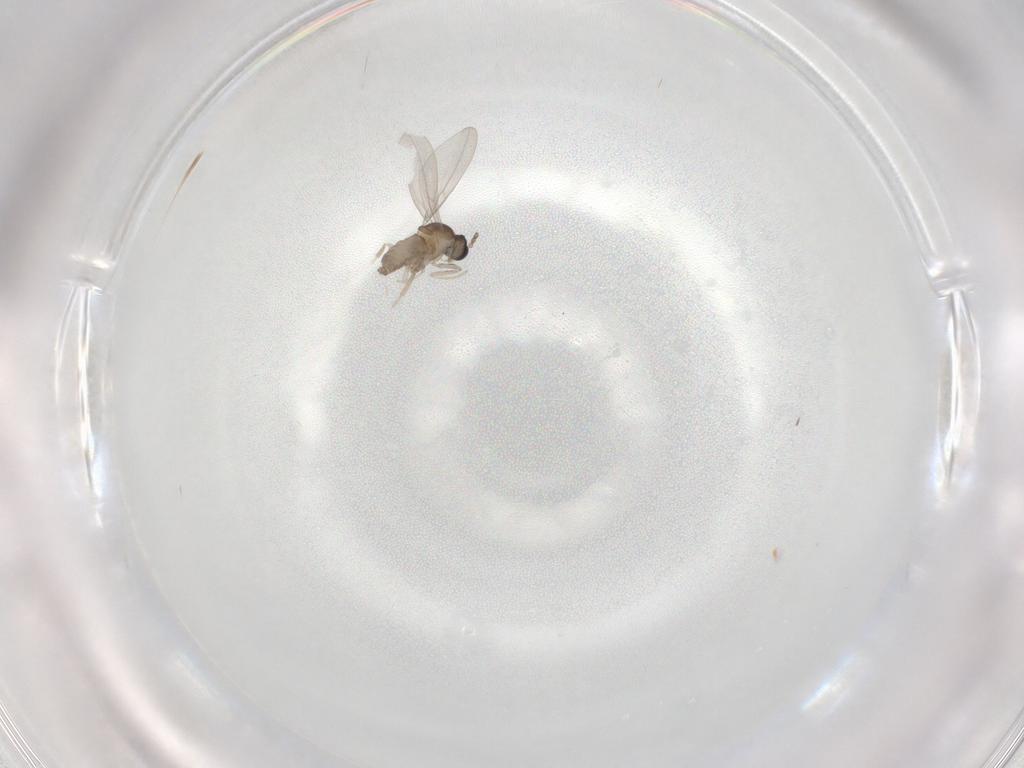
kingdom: Animalia
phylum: Arthropoda
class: Insecta
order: Diptera
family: Cecidomyiidae
